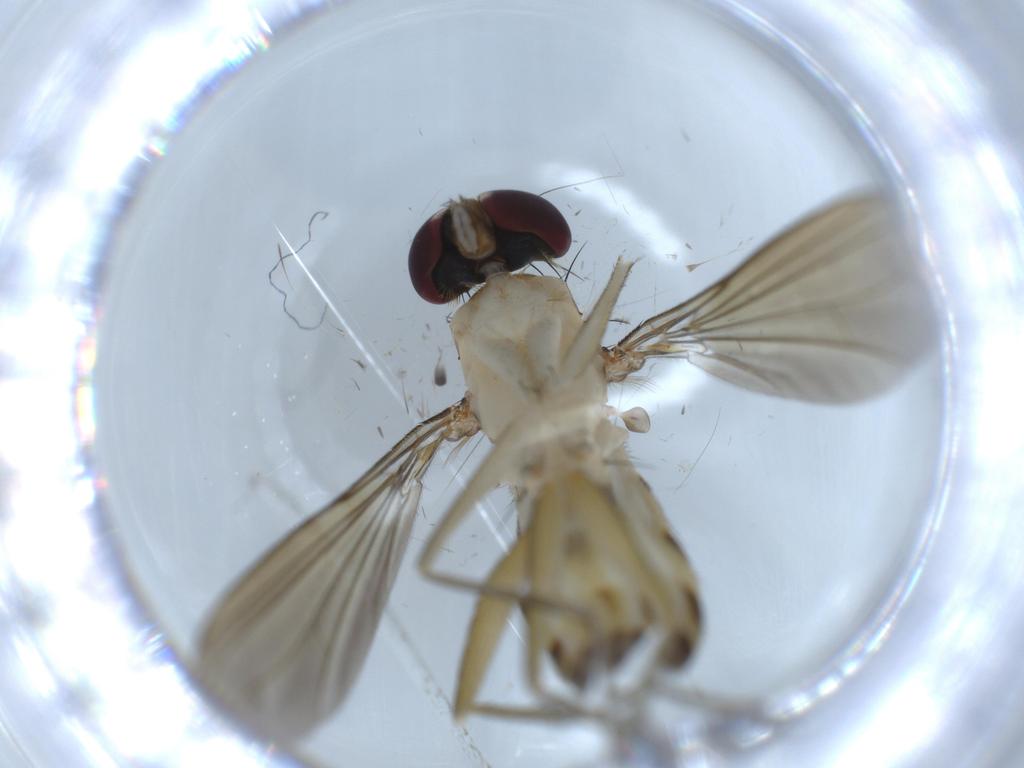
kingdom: Animalia
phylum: Arthropoda
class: Insecta
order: Diptera
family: Dolichopodidae
